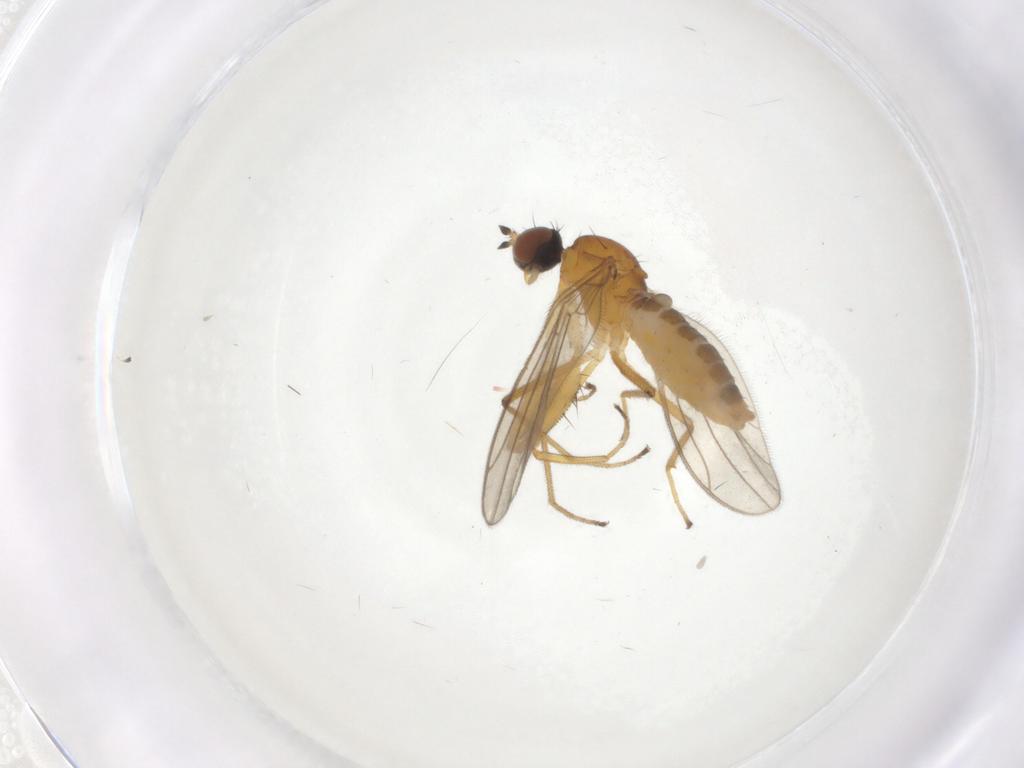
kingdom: Animalia
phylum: Arthropoda
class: Insecta
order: Diptera
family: Empididae
